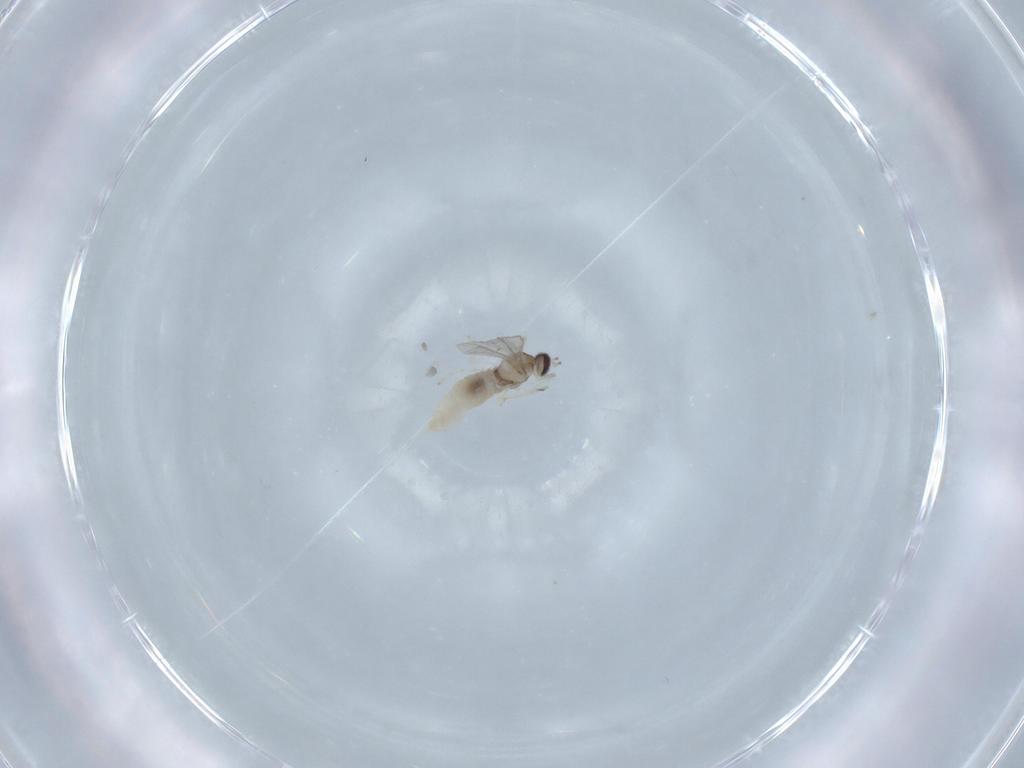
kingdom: Animalia
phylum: Arthropoda
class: Insecta
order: Diptera
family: Cecidomyiidae
